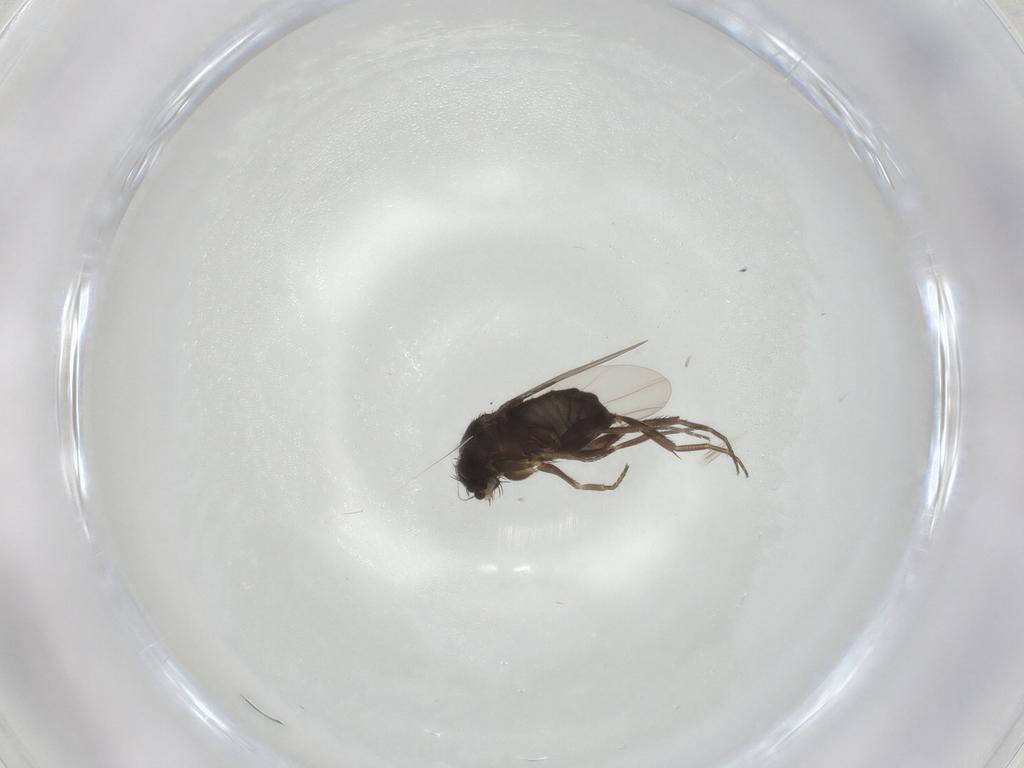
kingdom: Animalia
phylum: Arthropoda
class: Insecta
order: Diptera
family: Phoridae
